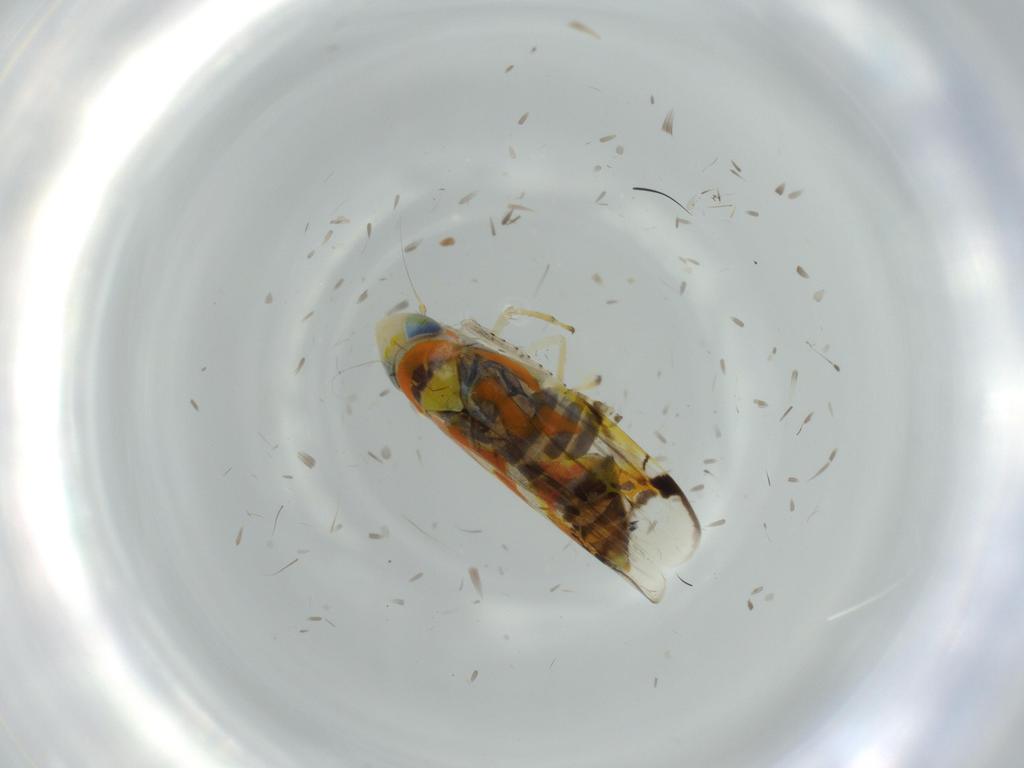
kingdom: Animalia
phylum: Arthropoda
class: Insecta
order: Hemiptera
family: Cicadellidae
